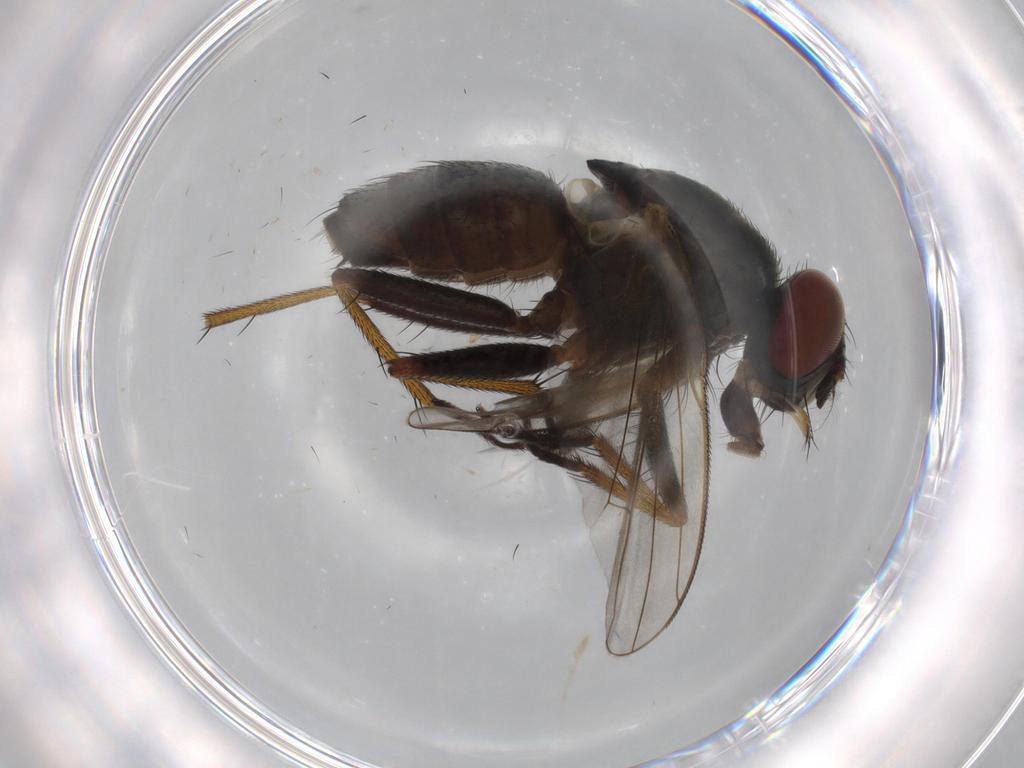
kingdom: Animalia
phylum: Arthropoda
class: Insecta
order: Diptera
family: Muscidae
